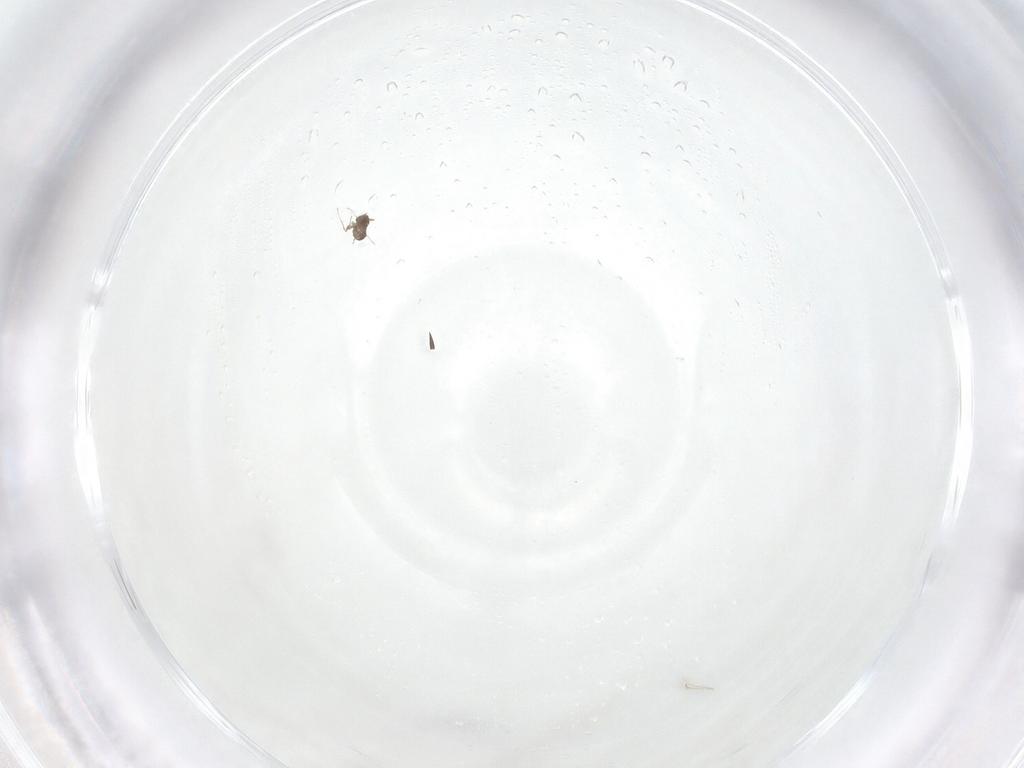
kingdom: Animalia
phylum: Arthropoda
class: Insecta
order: Hymenoptera
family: Mymaridae
